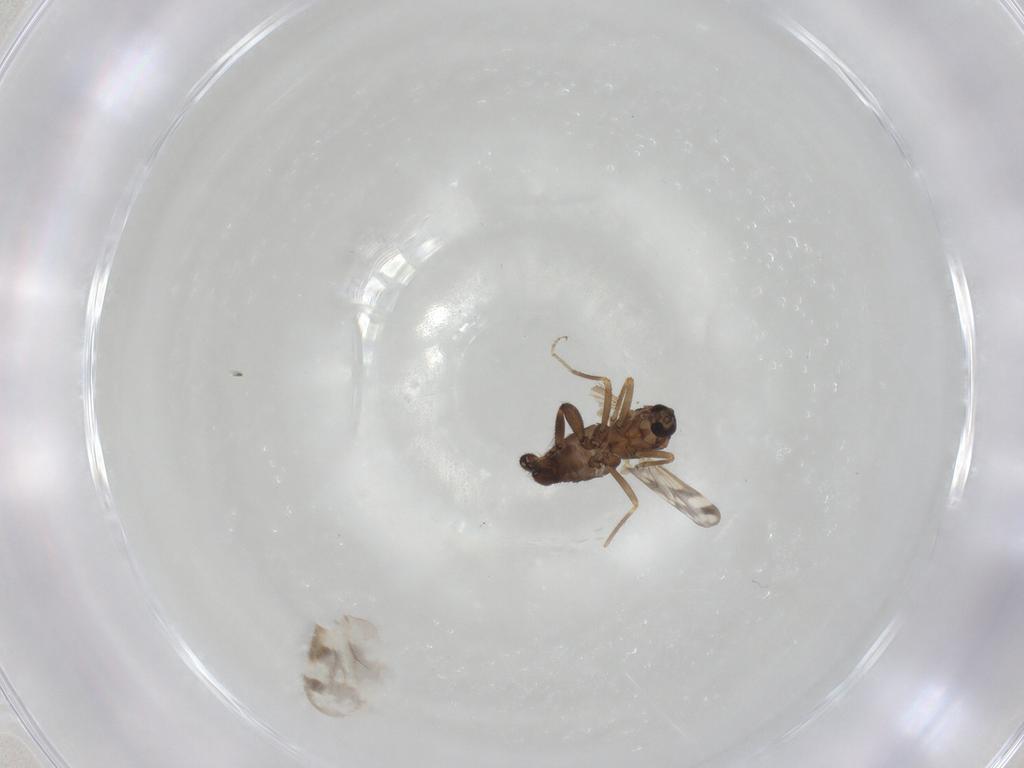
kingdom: Animalia
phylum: Arthropoda
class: Insecta
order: Diptera
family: Ceratopogonidae
